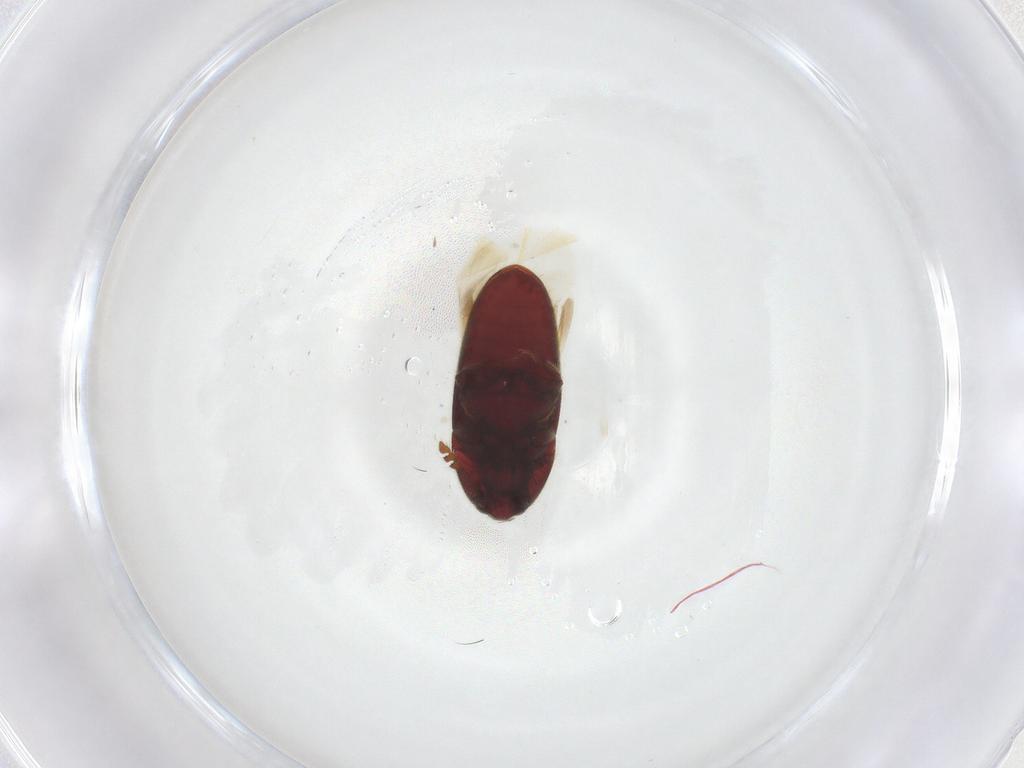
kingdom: Animalia
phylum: Arthropoda
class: Insecta
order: Coleoptera
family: Throscidae
